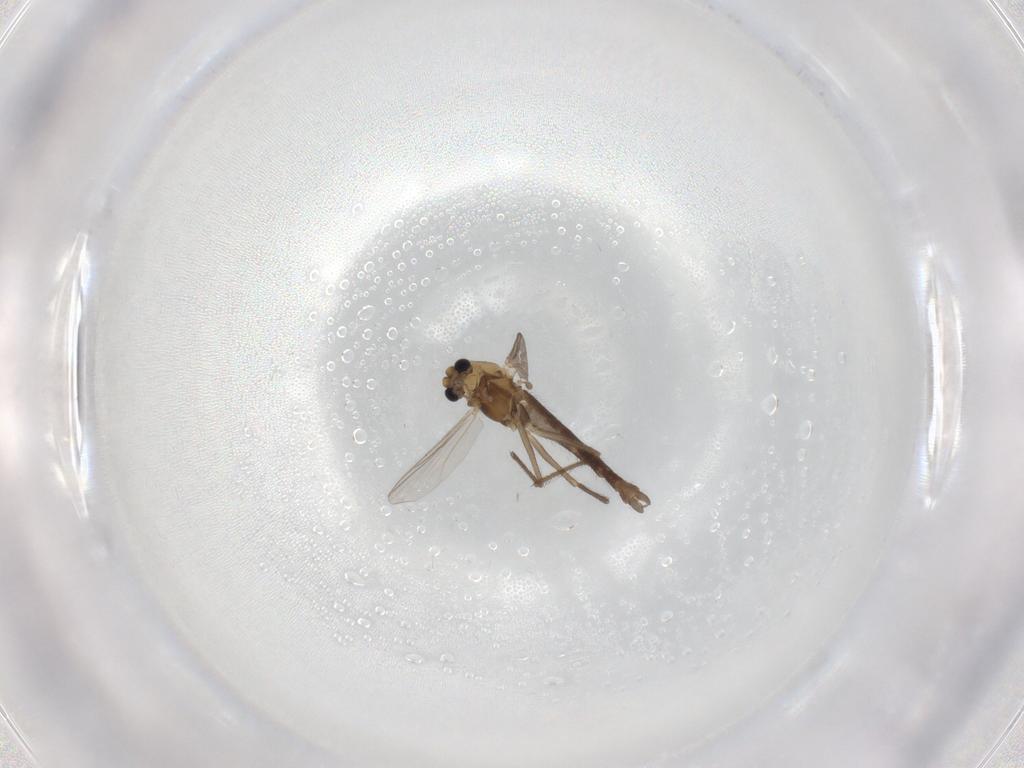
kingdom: Animalia
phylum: Arthropoda
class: Insecta
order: Diptera
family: Chironomidae
